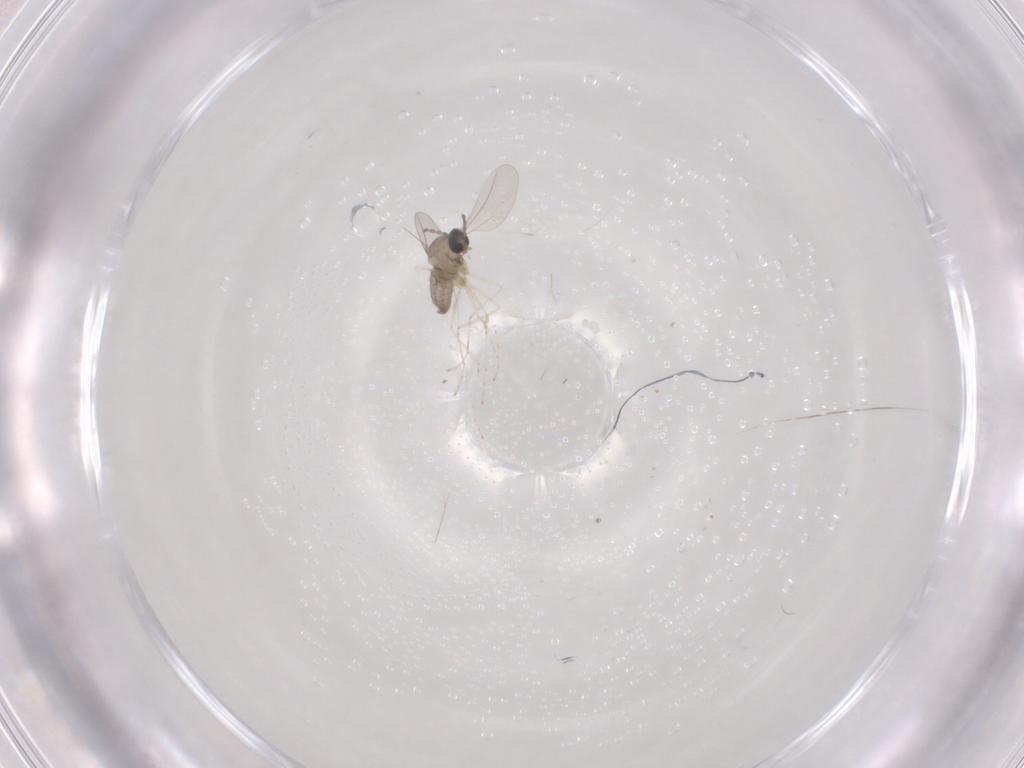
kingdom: Animalia
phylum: Arthropoda
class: Insecta
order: Diptera
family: Cecidomyiidae
